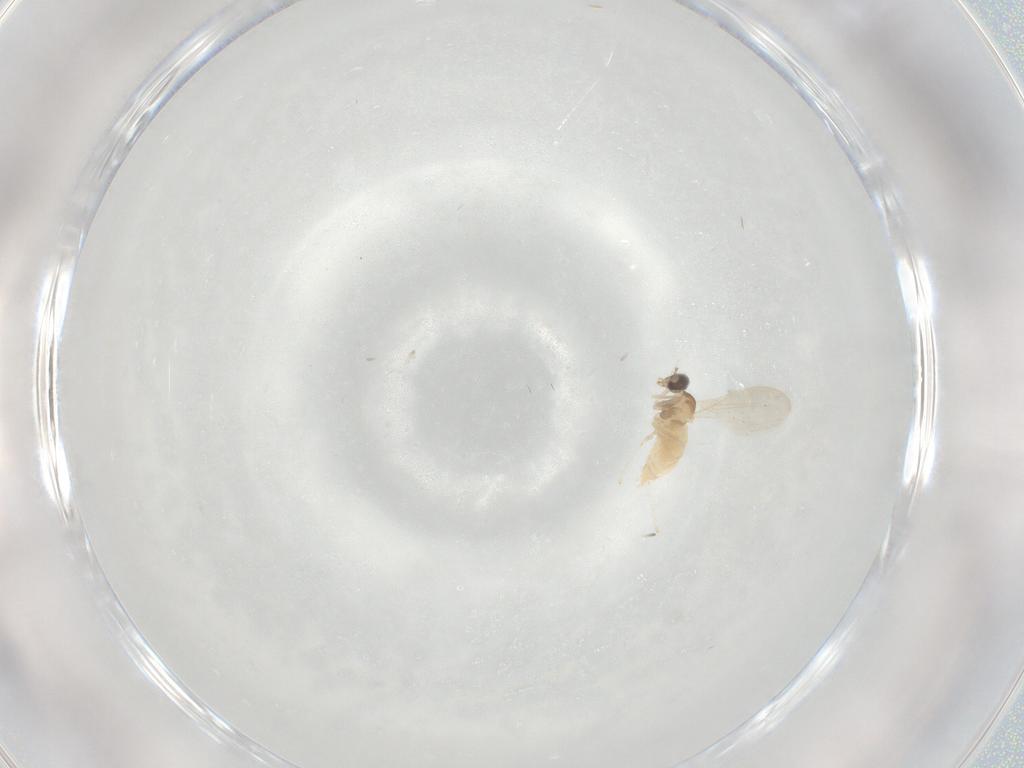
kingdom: Animalia
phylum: Arthropoda
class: Insecta
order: Diptera
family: Cecidomyiidae
